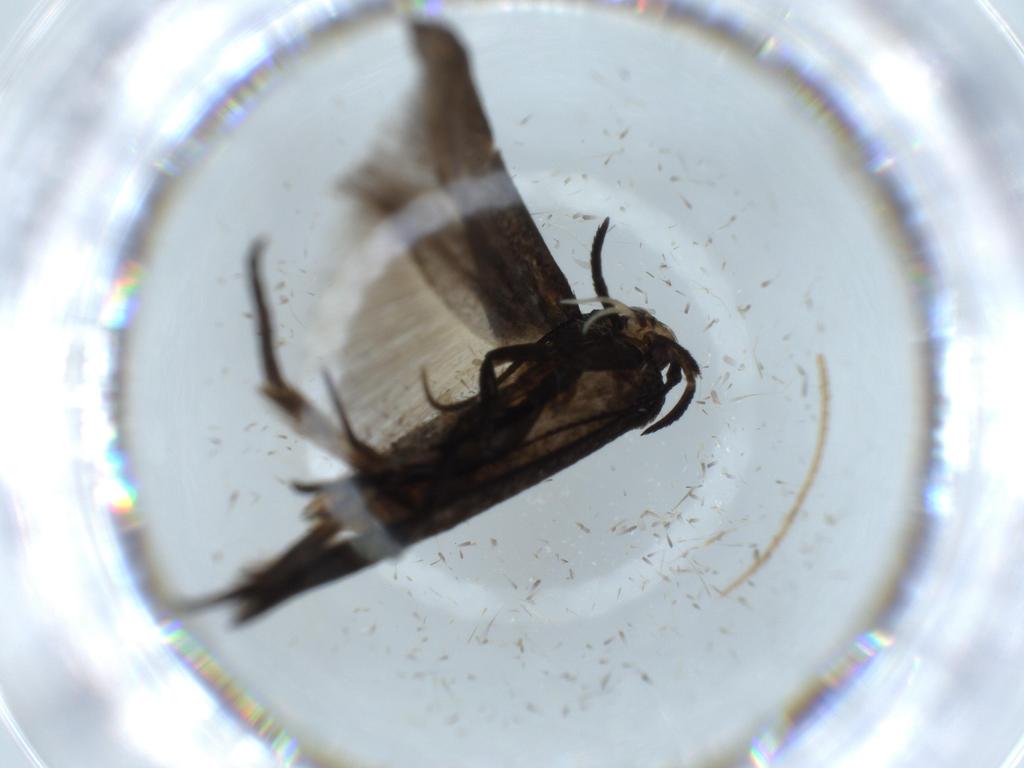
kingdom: Animalia
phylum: Arthropoda
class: Insecta
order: Lepidoptera
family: Cosmopterigidae
